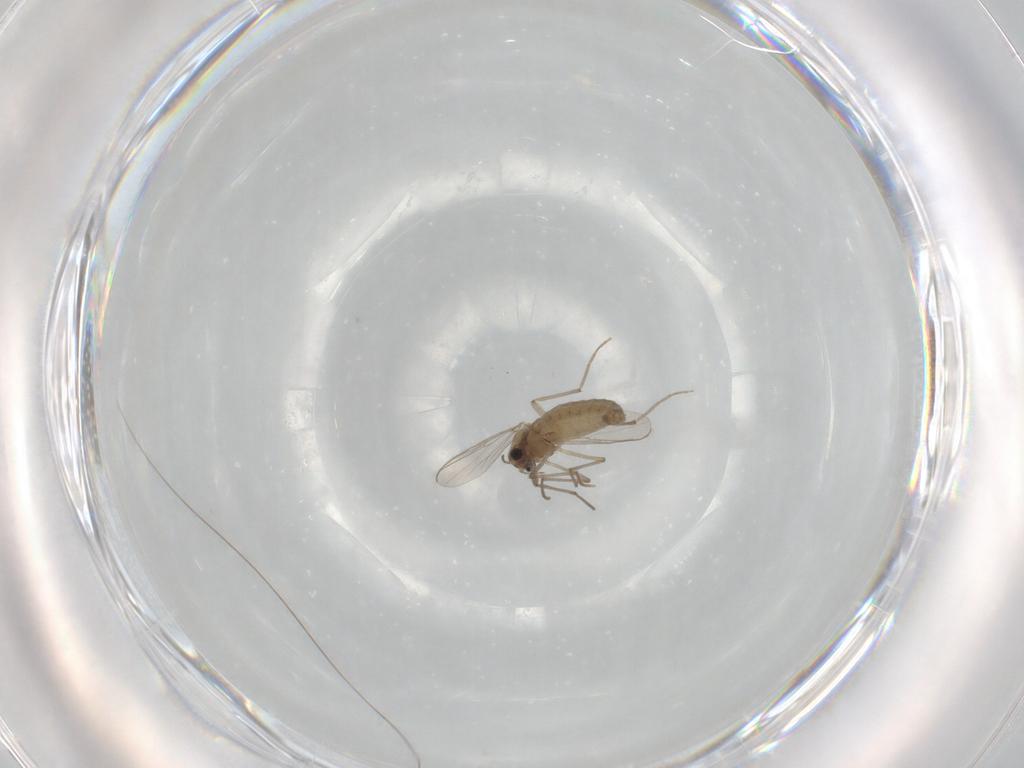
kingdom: Animalia
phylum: Arthropoda
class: Insecta
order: Diptera
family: Chironomidae
